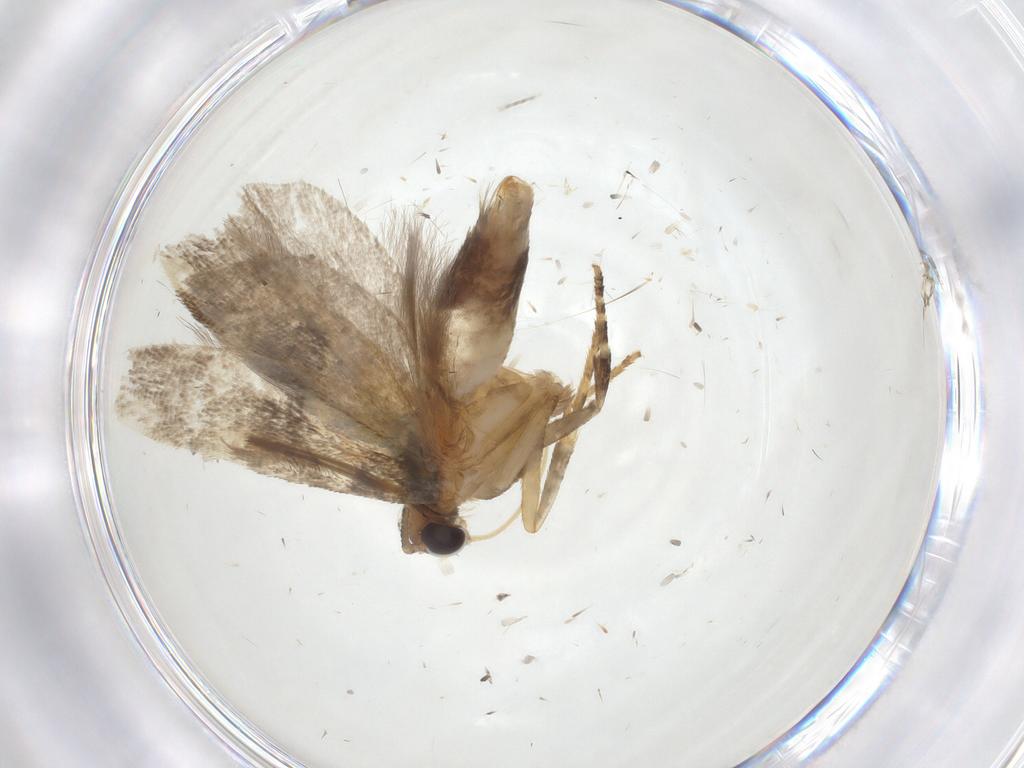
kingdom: Animalia
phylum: Arthropoda
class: Insecta
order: Lepidoptera
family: Gelechiidae
